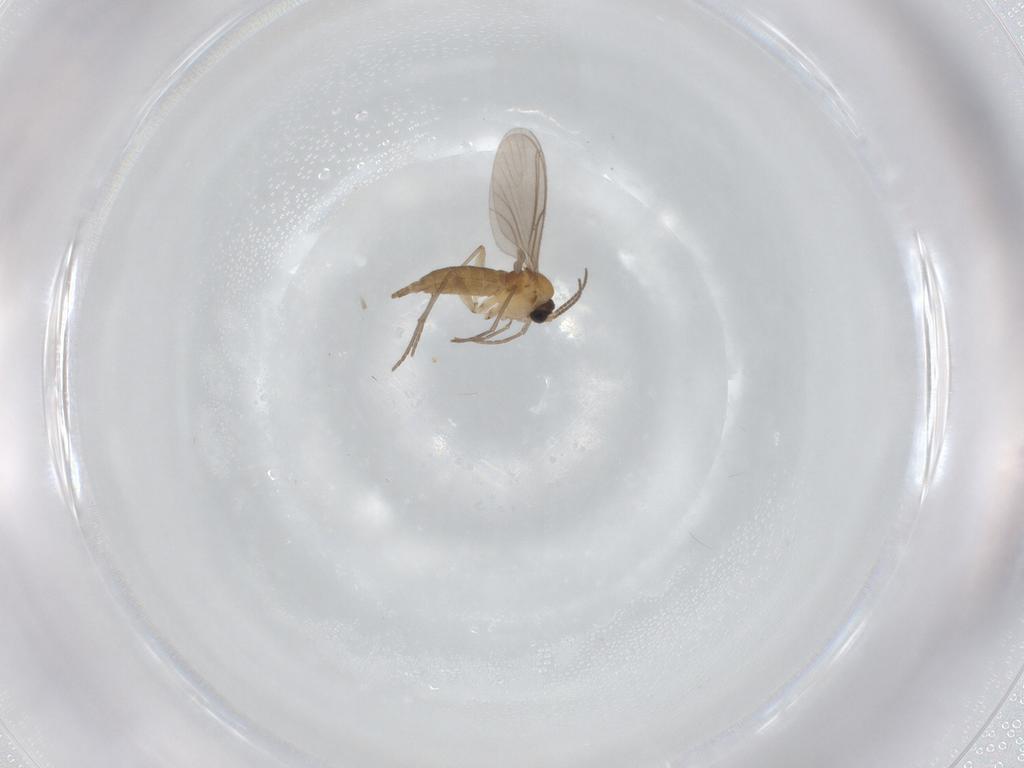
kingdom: Animalia
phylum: Arthropoda
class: Insecta
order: Diptera
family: Sciaridae
